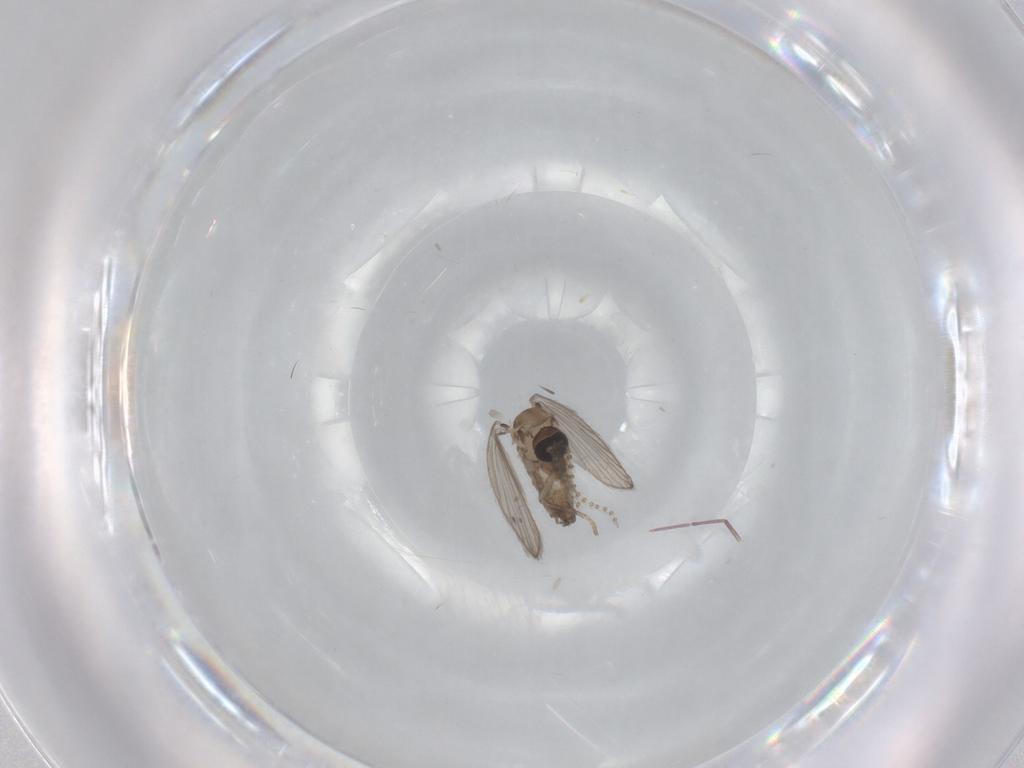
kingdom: Animalia
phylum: Arthropoda
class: Insecta
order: Diptera
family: Psychodidae
